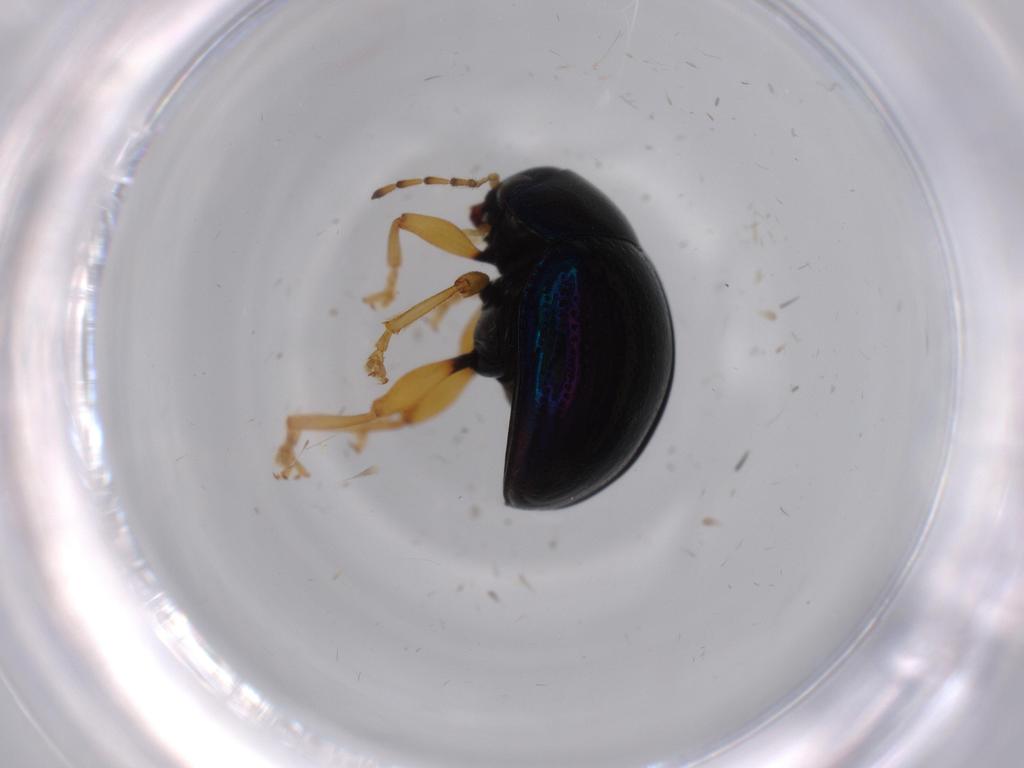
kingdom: Animalia
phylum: Arthropoda
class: Insecta
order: Coleoptera
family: Chrysomelidae
